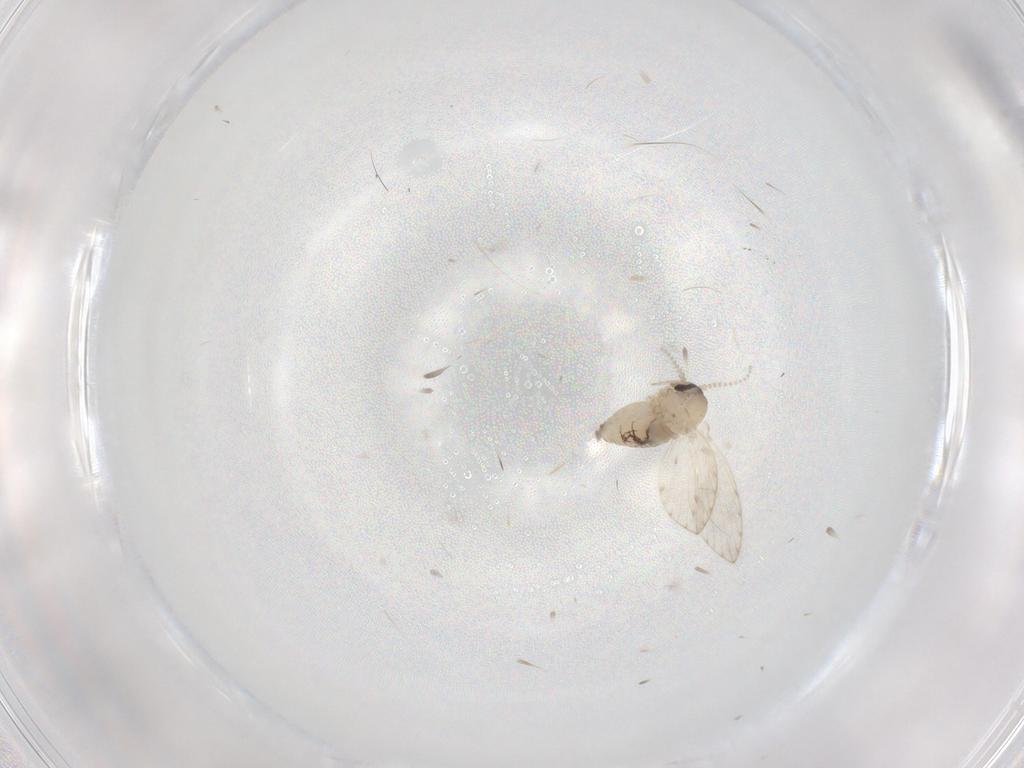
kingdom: Animalia
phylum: Arthropoda
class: Insecta
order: Diptera
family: Psychodidae
